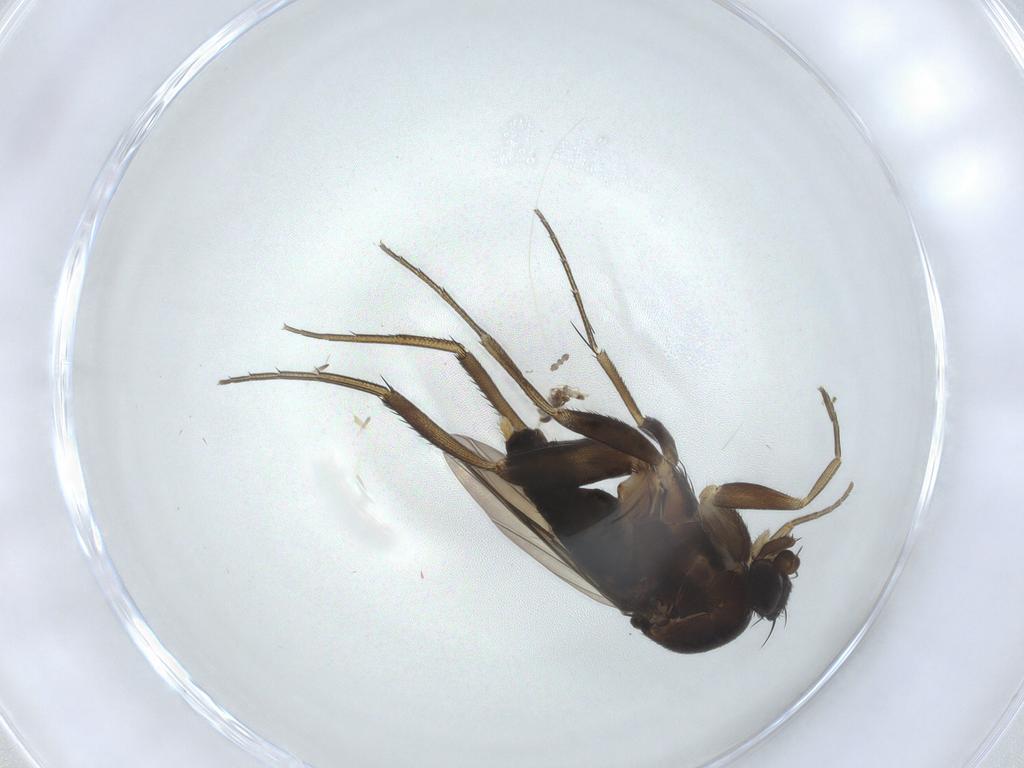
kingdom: Animalia
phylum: Arthropoda
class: Insecta
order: Diptera
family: Phoridae
